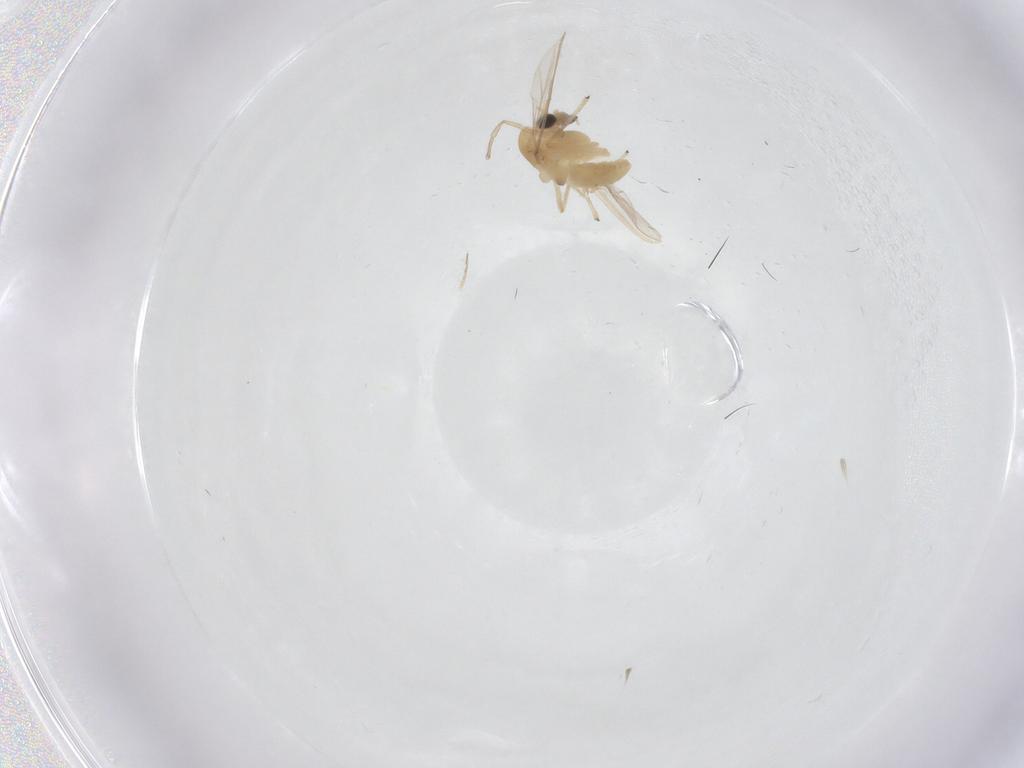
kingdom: Animalia
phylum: Arthropoda
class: Insecta
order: Diptera
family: Chironomidae
